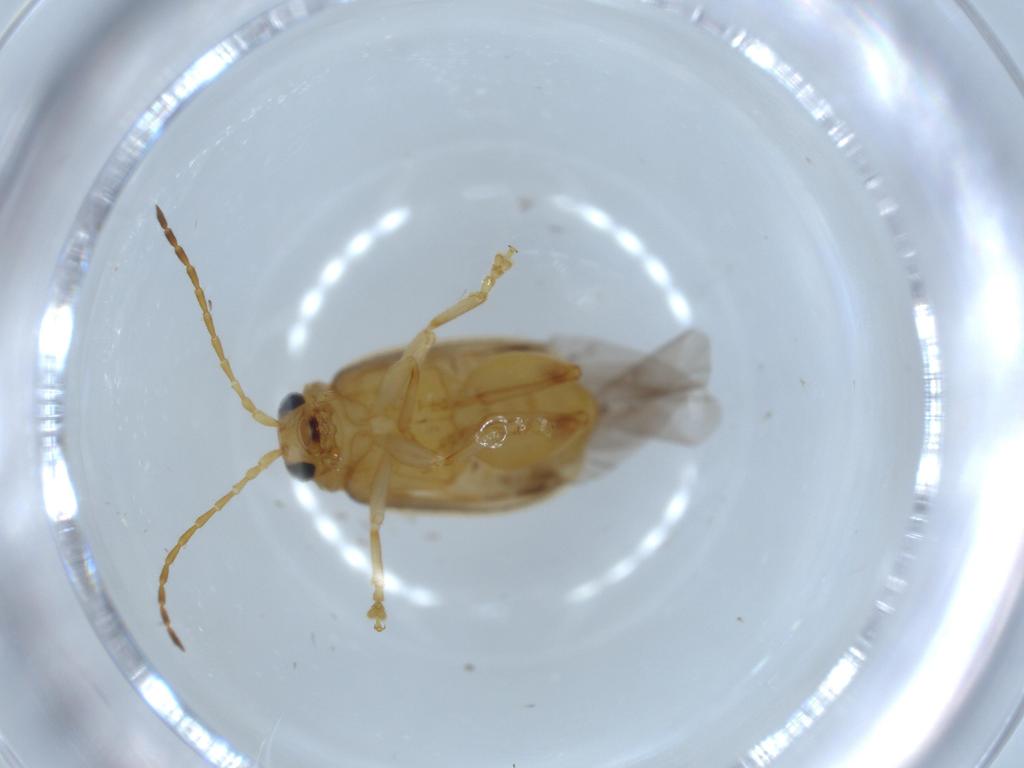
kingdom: Animalia
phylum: Arthropoda
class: Insecta
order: Coleoptera
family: Chrysomelidae
